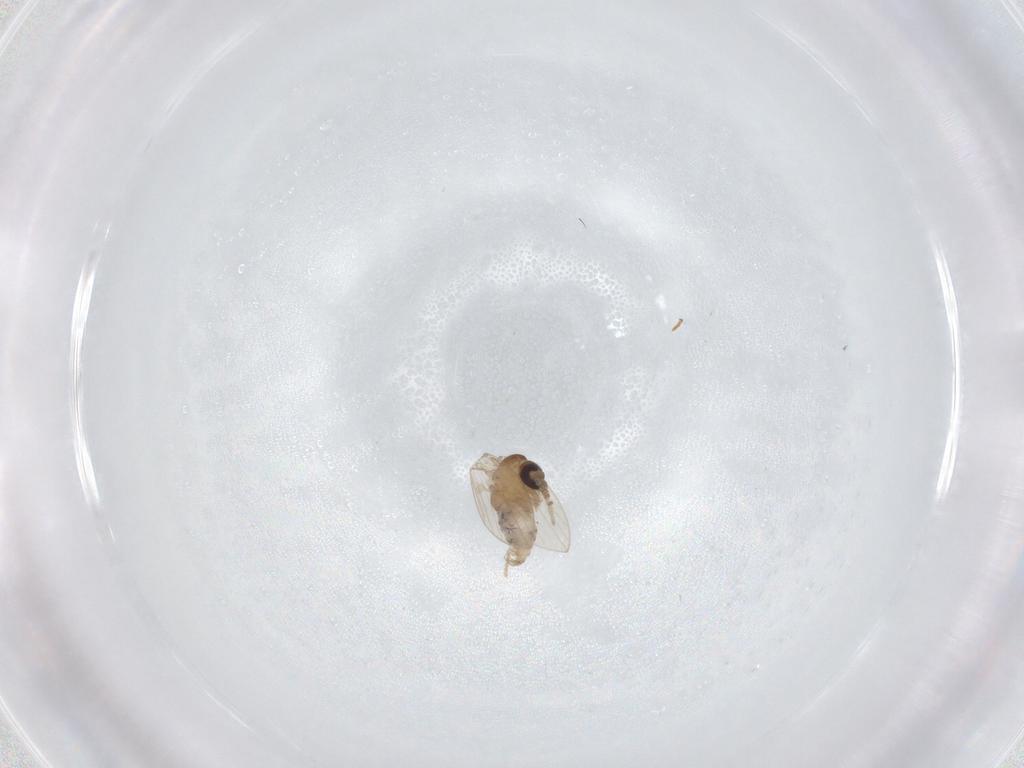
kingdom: Animalia
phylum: Arthropoda
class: Insecta
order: Diptera
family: Psychodidae
